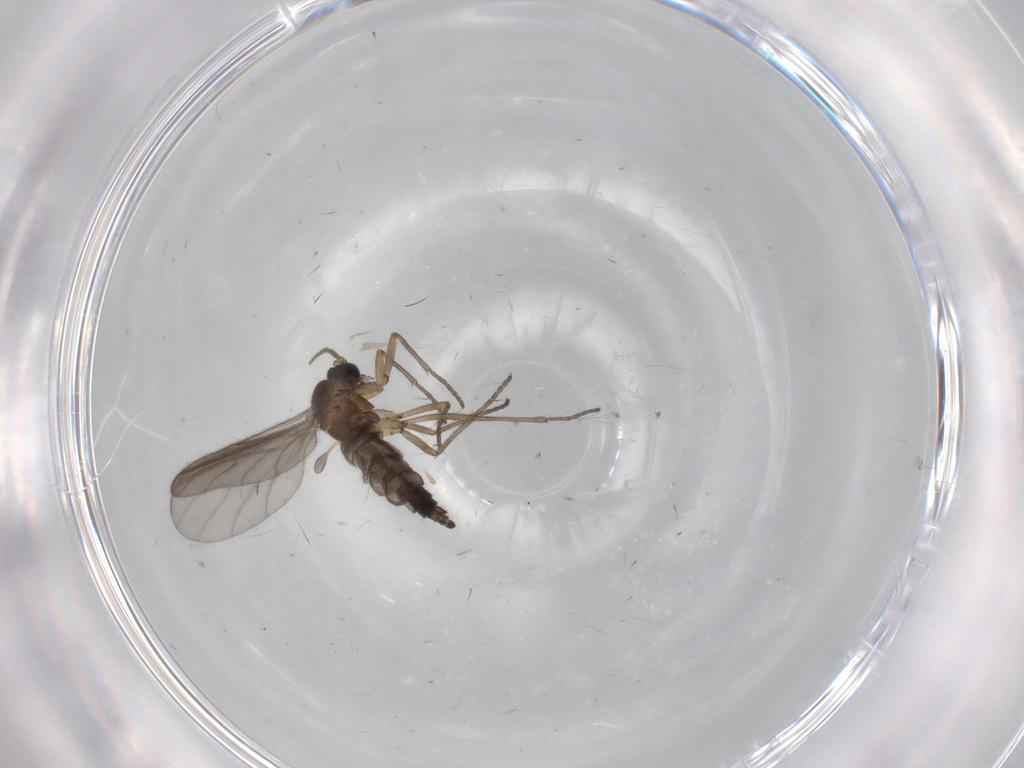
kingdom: Animalia
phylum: Arthropoda
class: Insecta
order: Diptera
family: Sciaridae
